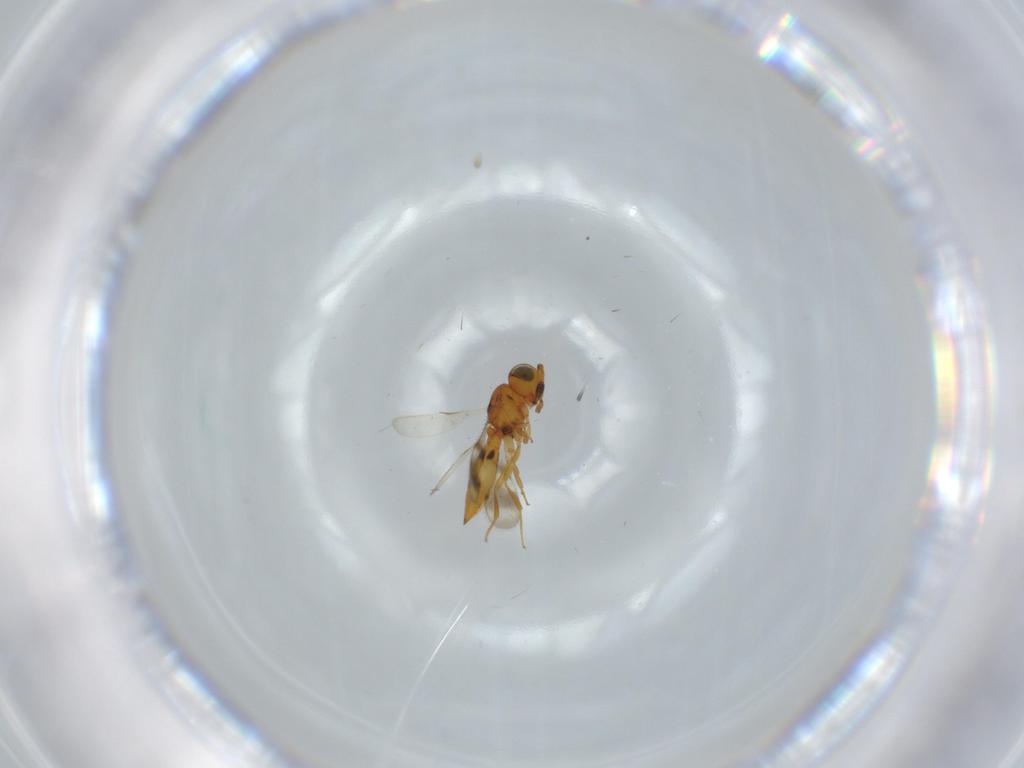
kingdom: Animalia
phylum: Arthropoda
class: Insecta
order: Hymenoptera
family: Scelionidae
